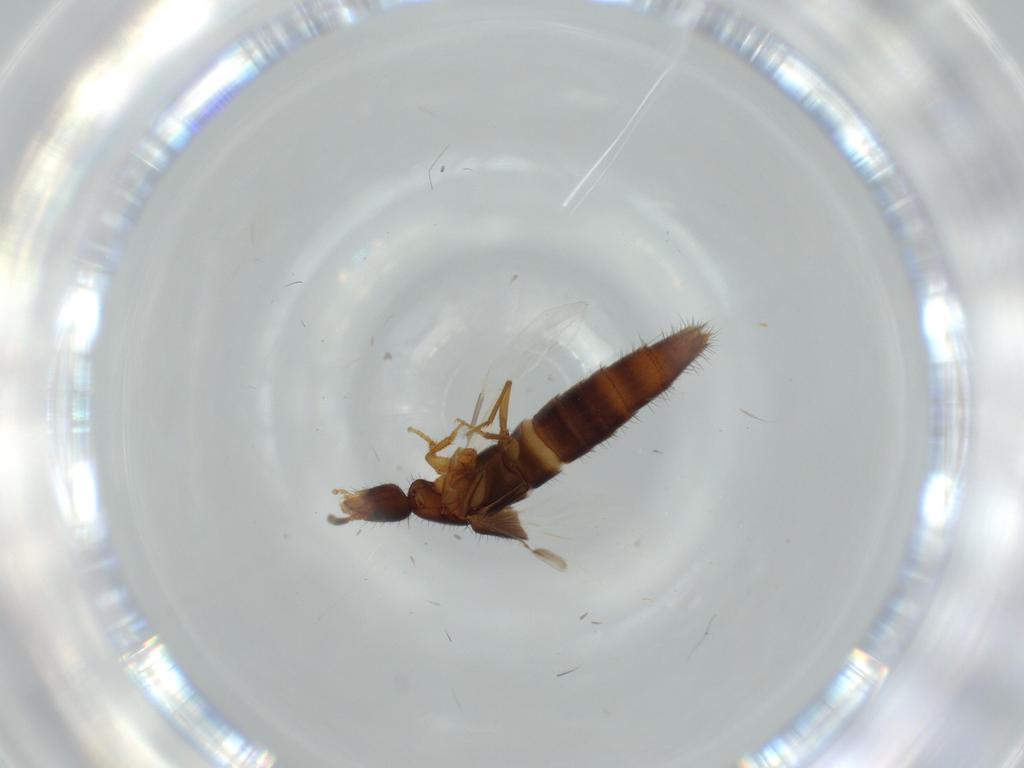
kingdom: Animalia
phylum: Arthropoda
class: Insecta
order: Coleoptera
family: Staphylinidae
